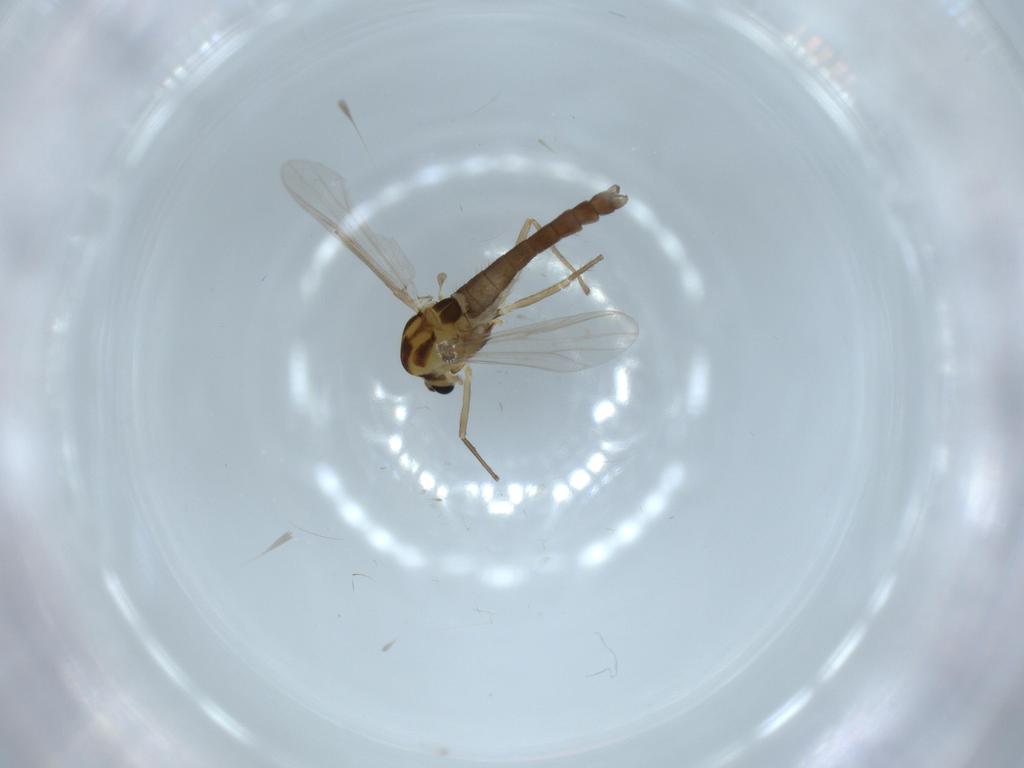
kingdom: Animalia
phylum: Arthropoda
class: Insecta
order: Diptera
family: Chironomidae
